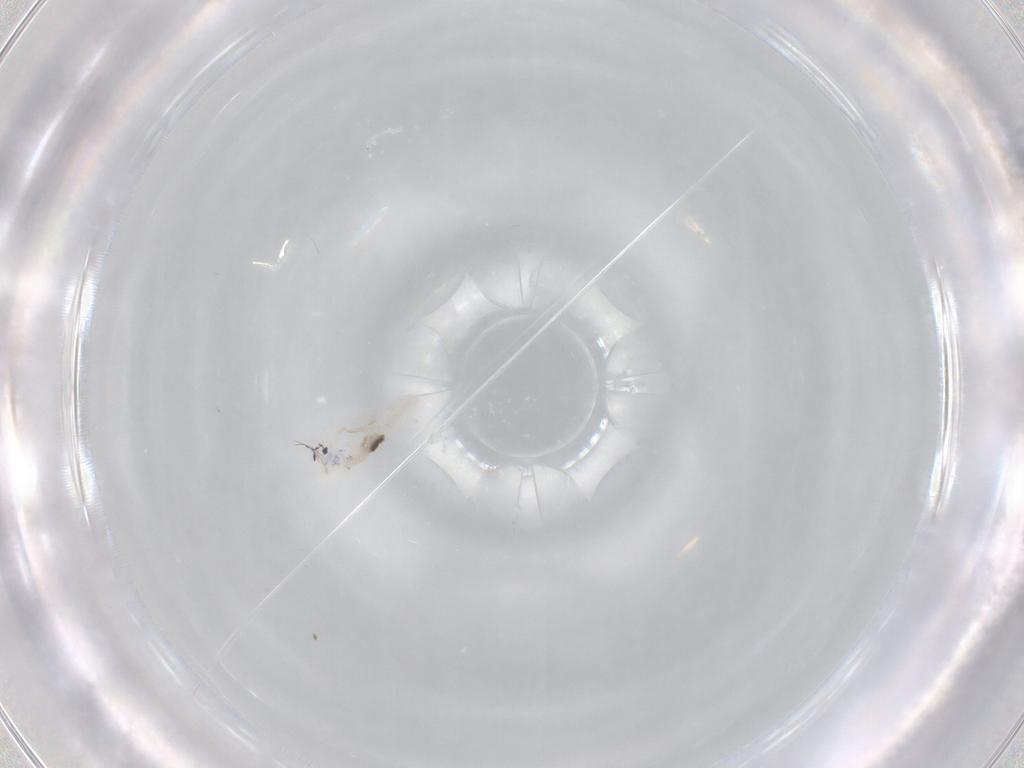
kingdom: Animalia
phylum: Arthropoda
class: Collembola
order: Entomobryomorpha
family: Entomobryidae
